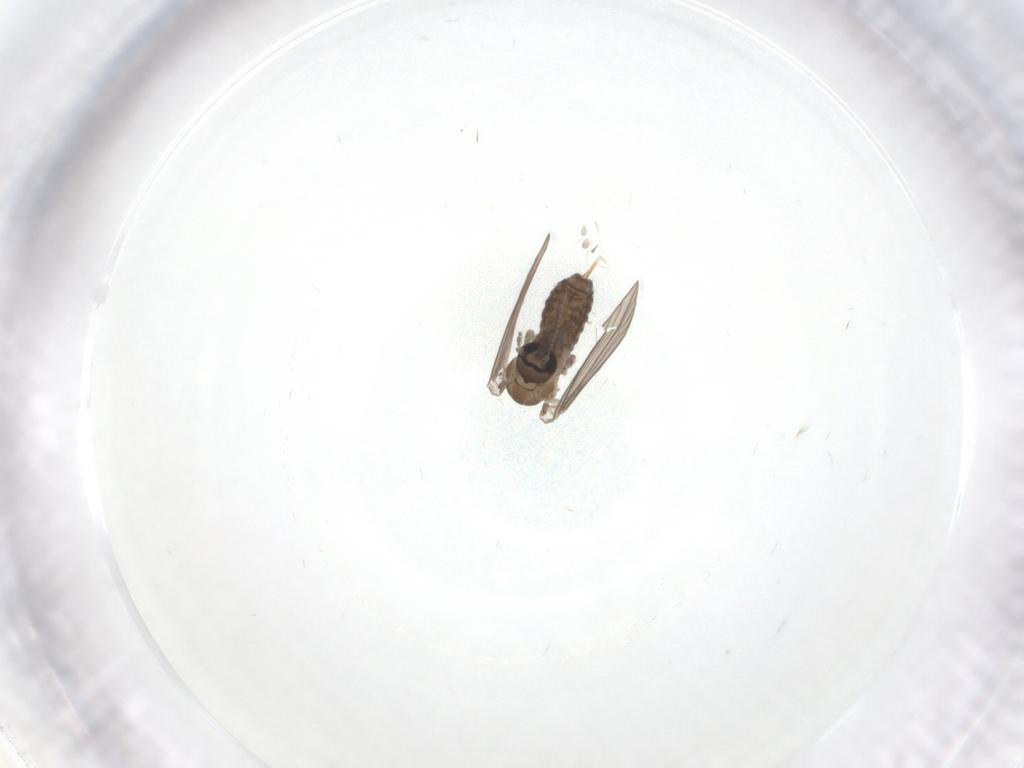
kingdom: Animalia
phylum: Arthropoda
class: Insecta
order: Diptera
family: Psychodidae
